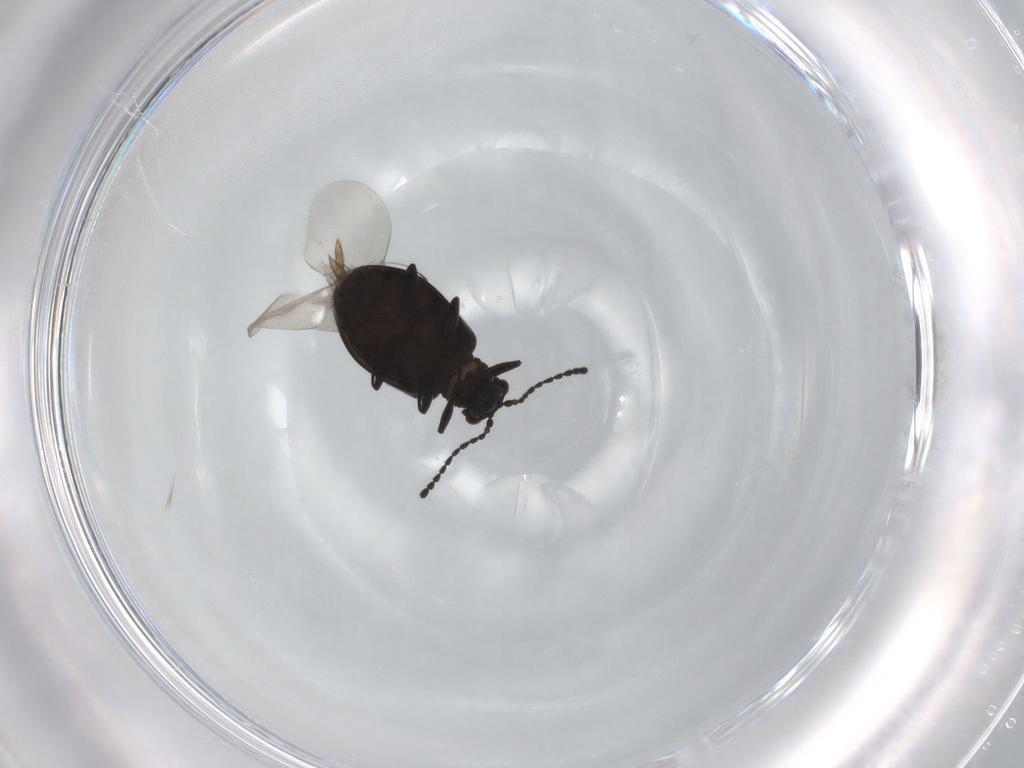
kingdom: Animalia
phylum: Arthropoda
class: Insecta
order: Coleoptera
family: Aderidae
